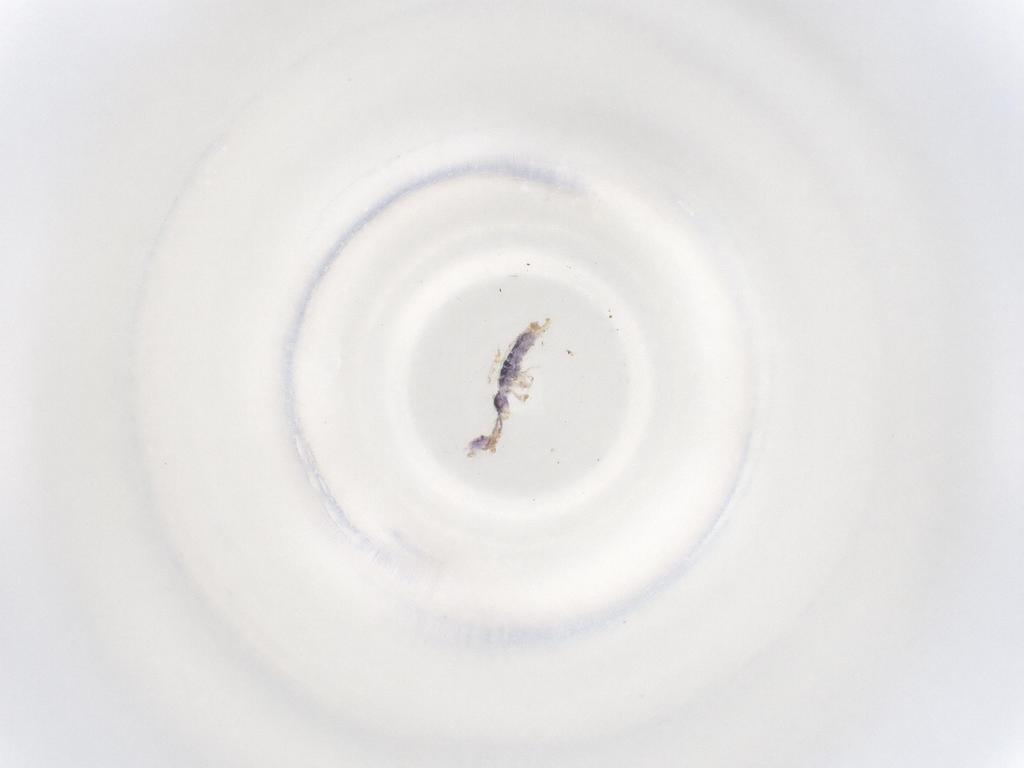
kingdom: Animalia
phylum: Arthropoda
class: Collembola
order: Entomobryomorpha
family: Isotomidae
